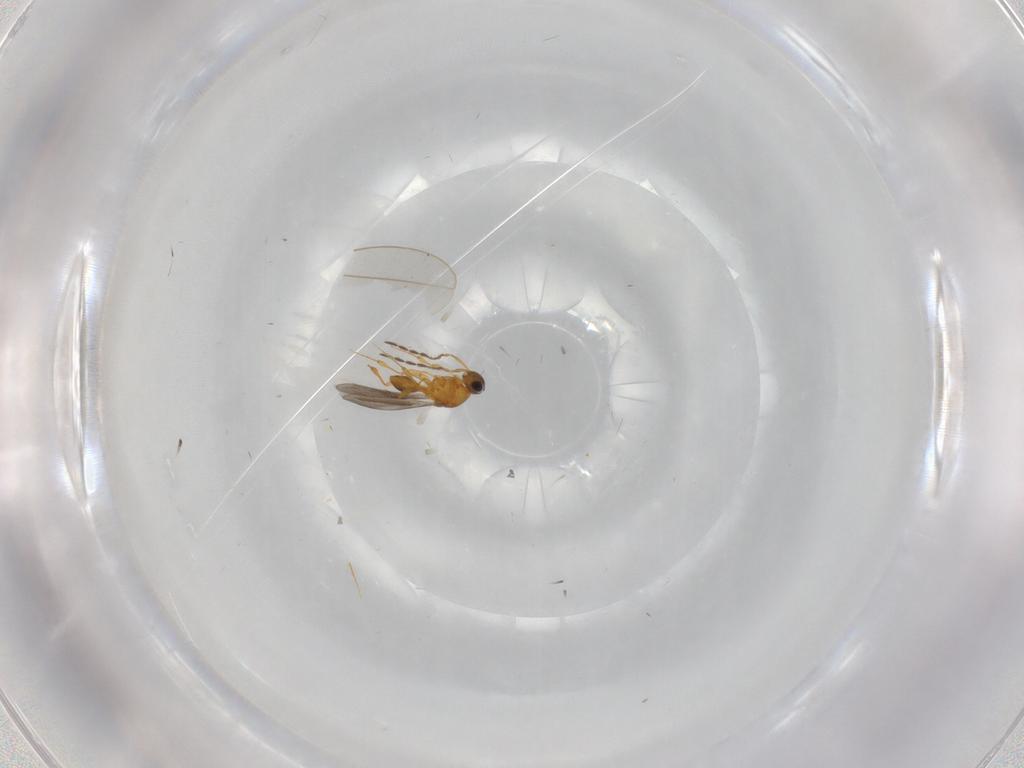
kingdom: Animalia
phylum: Arthropoda
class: Insecta
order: Hymenoptera
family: Platygastridae
